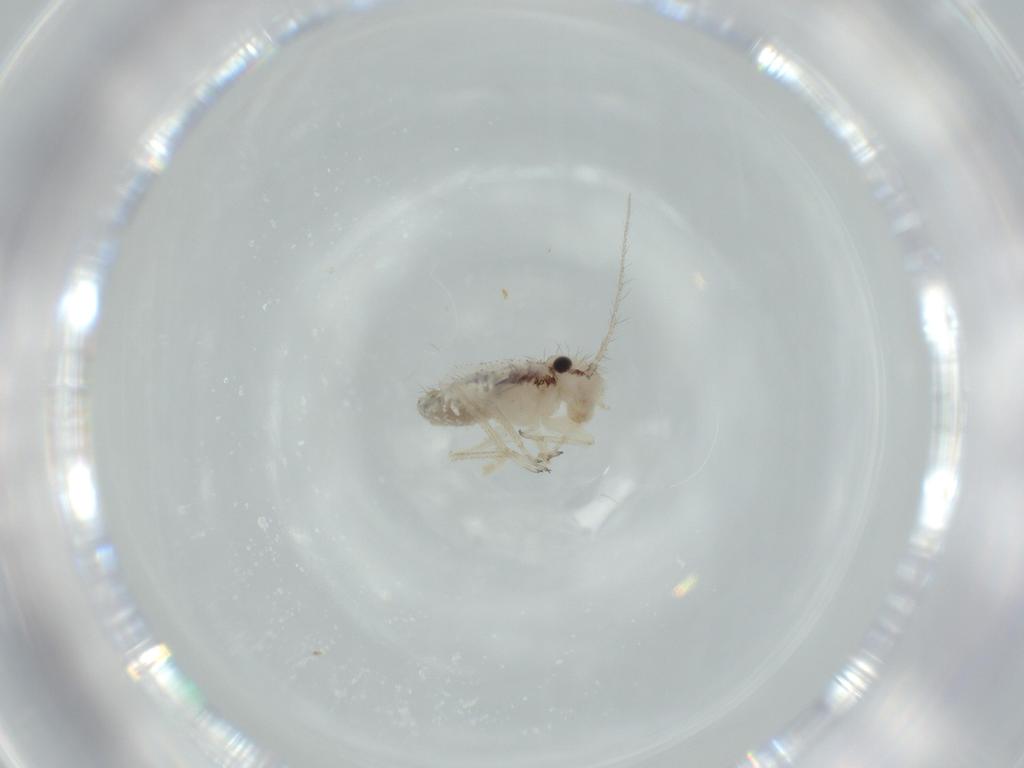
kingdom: Animalia
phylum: Arthropoda
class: Insecta
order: Psocodea
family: Pseudocaeciliidae
